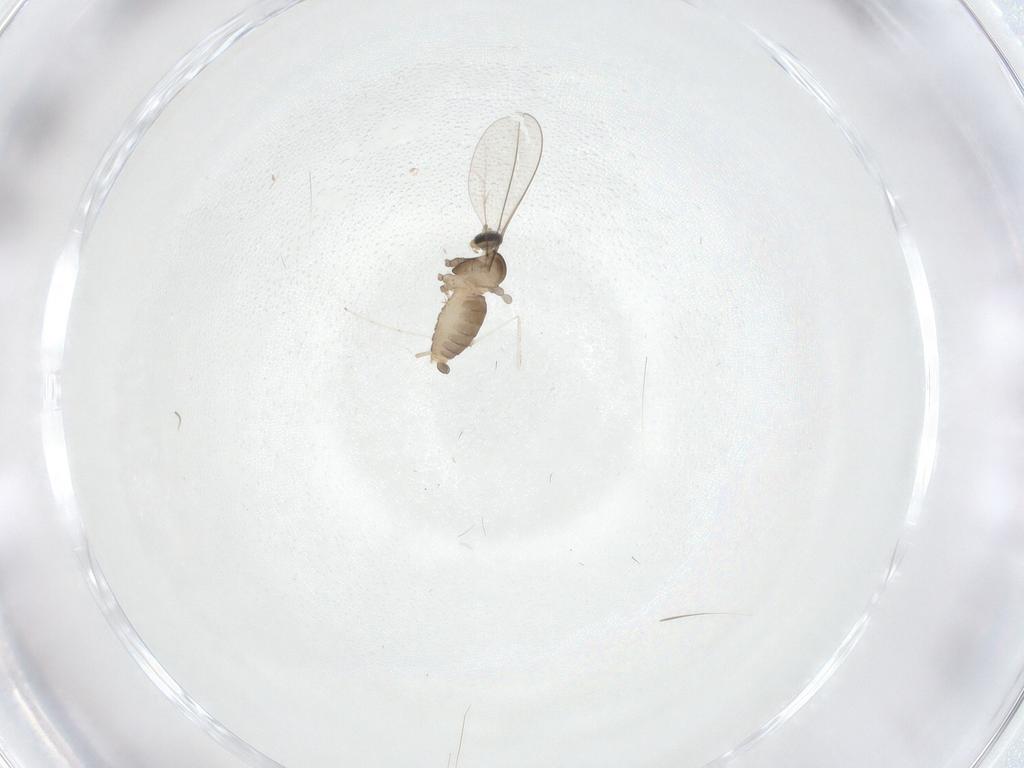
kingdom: Animalia
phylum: Arthropoda
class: Insecta
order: Diptera
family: Cecidomyiidae
